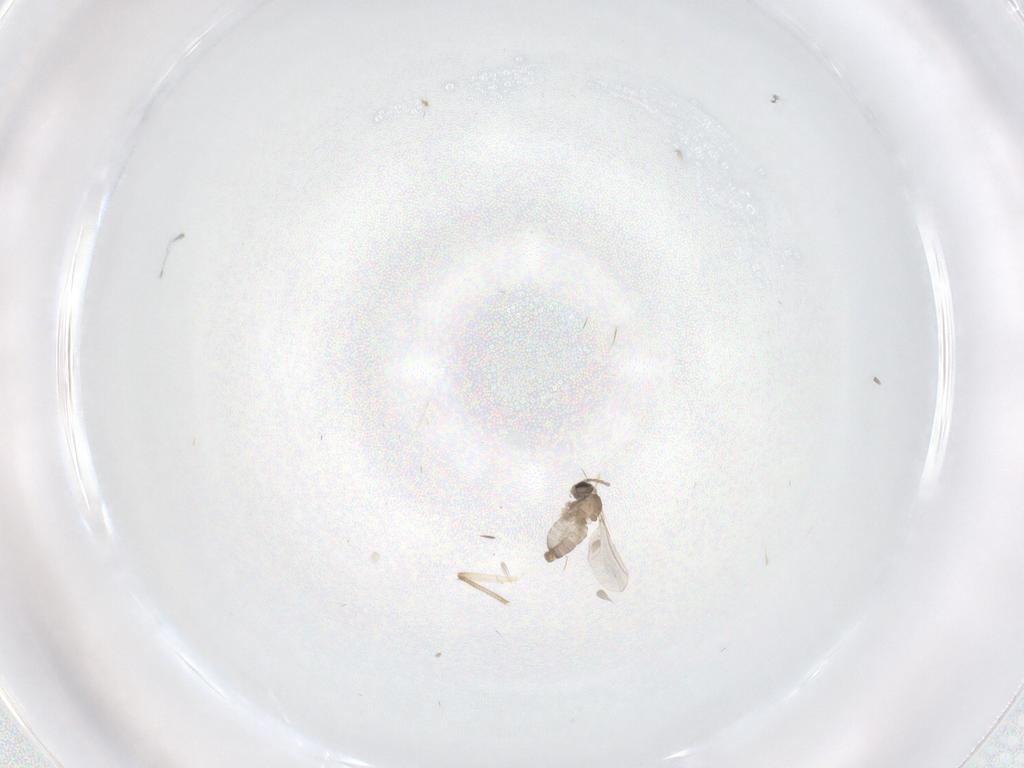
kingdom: Animalia
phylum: Arthropoda
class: Insecta
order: Diptera
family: Cecidomyiidae
